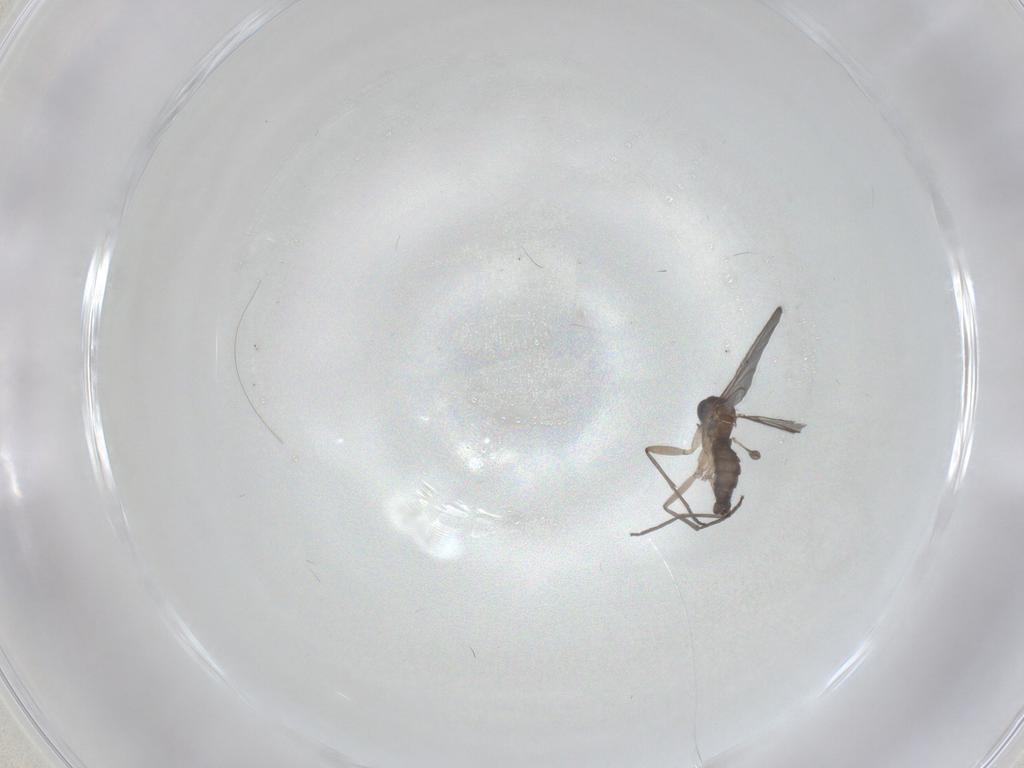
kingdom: Animalia
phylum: Arthropoda
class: Insecta
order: Diptera
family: Sciaridae
